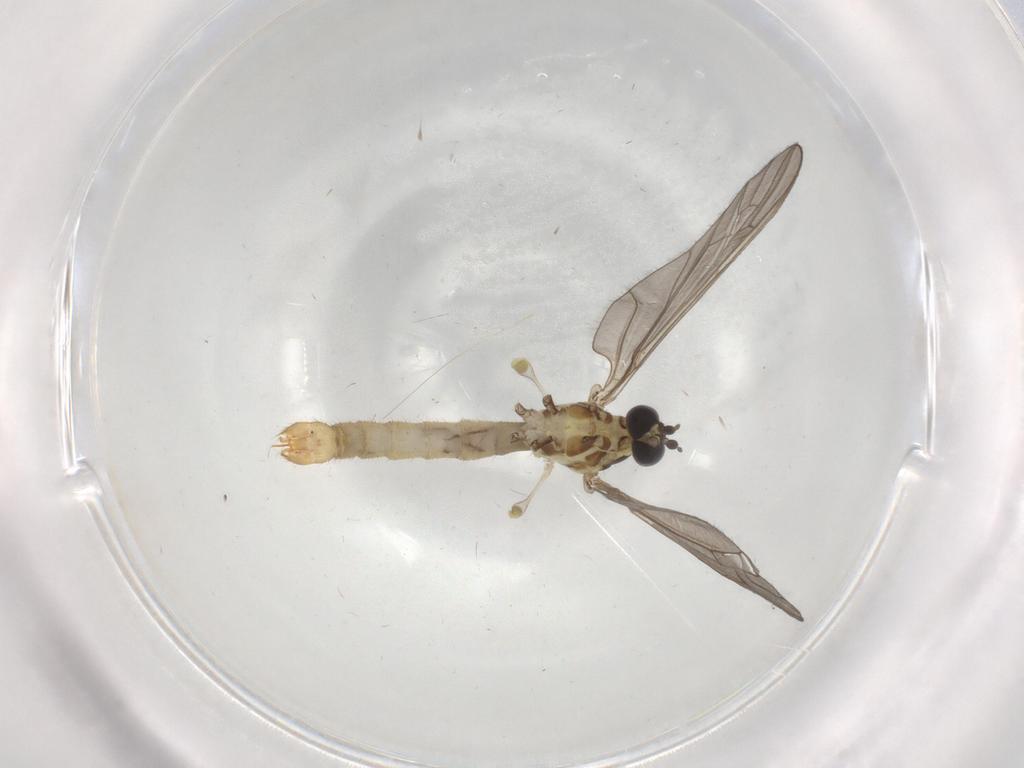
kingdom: Animalia
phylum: Arthropoda
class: Insecta
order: Diptera
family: Limoniidae
